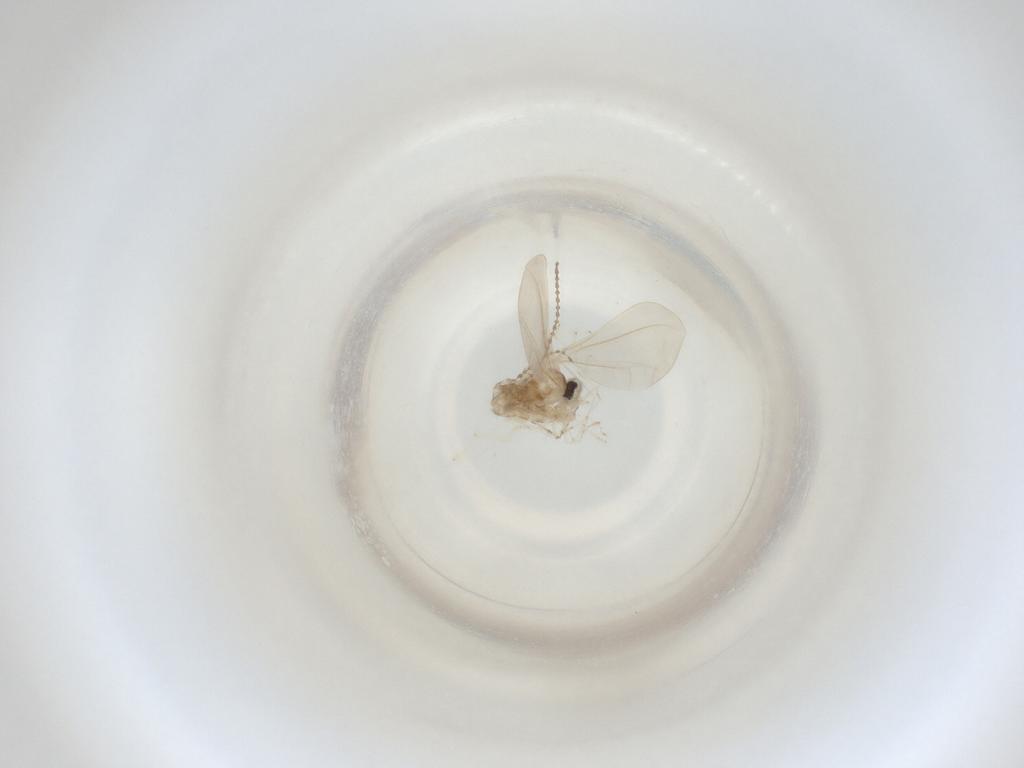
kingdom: Animalia
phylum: Arthropoda
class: Insecta
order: Diptera
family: Cecidomyiidae
